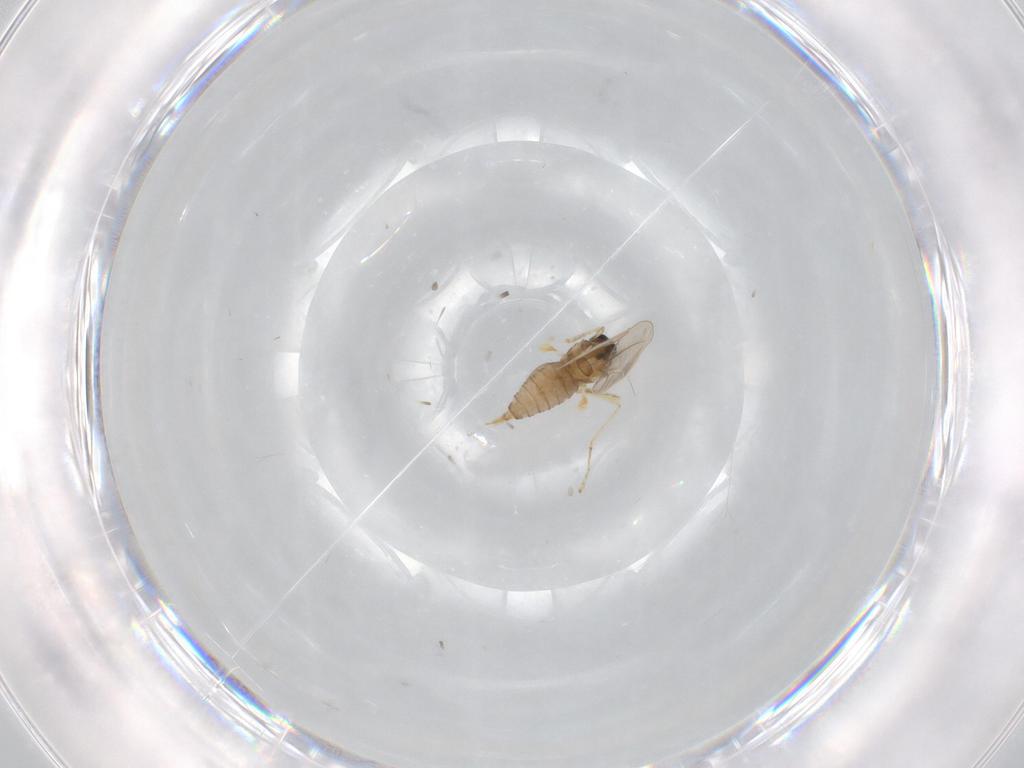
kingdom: Animalia
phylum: Arthropoda
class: Insecta
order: Diptera
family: Cecidomyiidae
